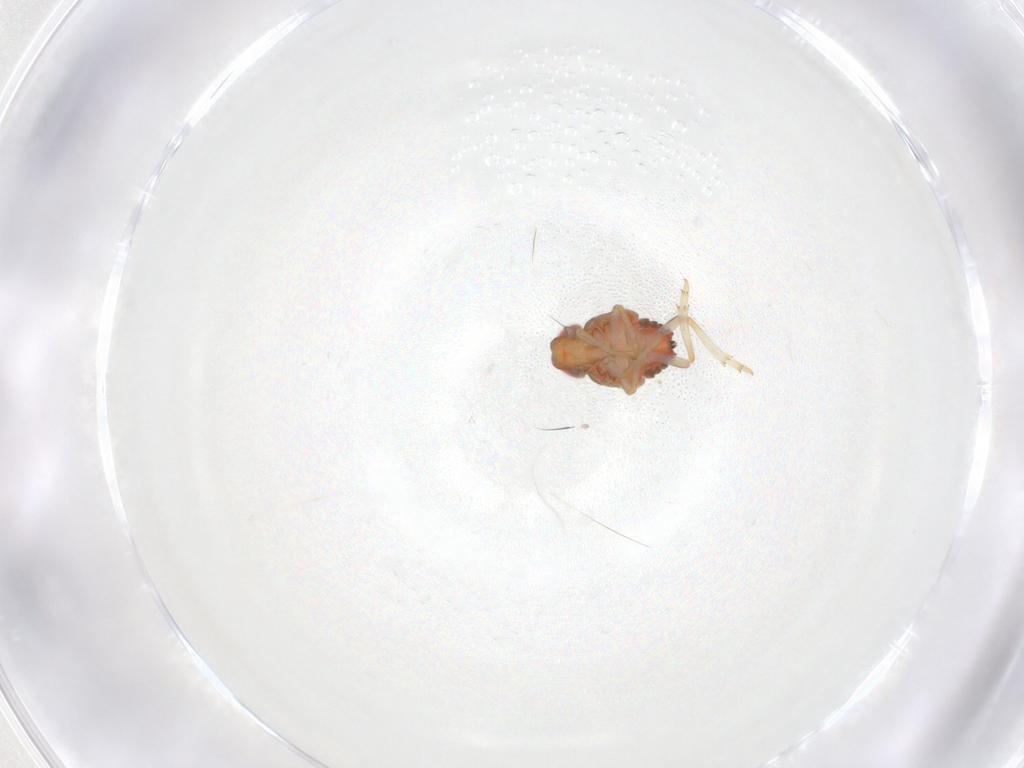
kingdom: Animalia
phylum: Arthropoda
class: Insecta
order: Hemiptera
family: Issidae
